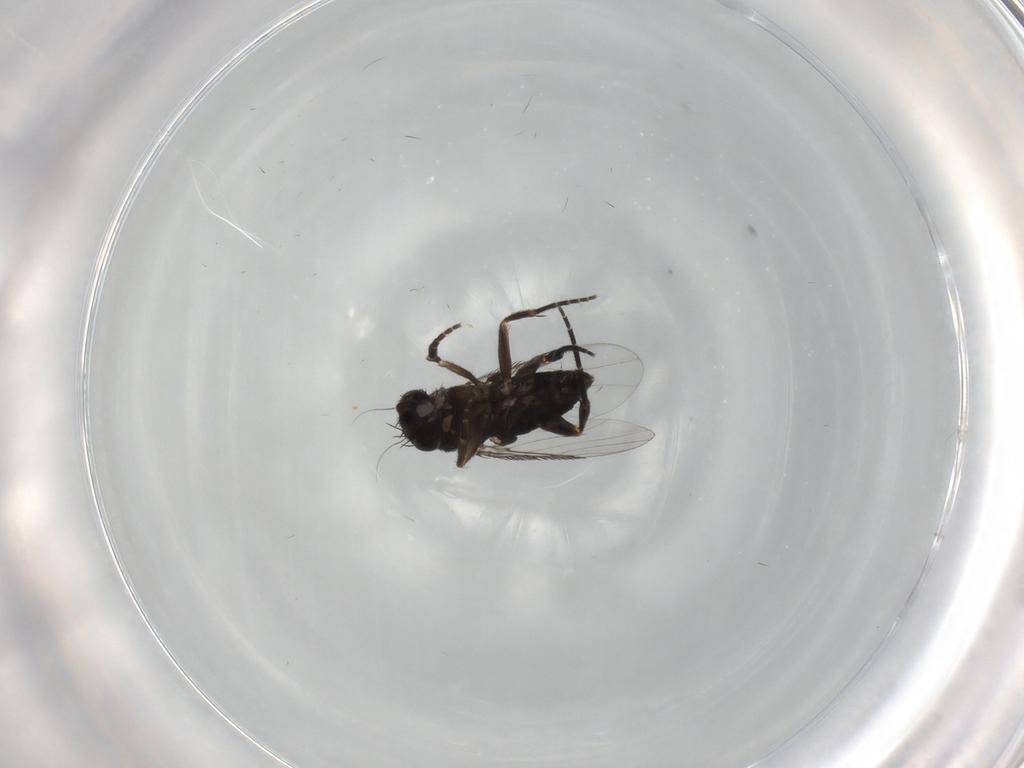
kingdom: Animalia
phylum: Arthropoda
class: Insecta
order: Diptera
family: Phoridae
